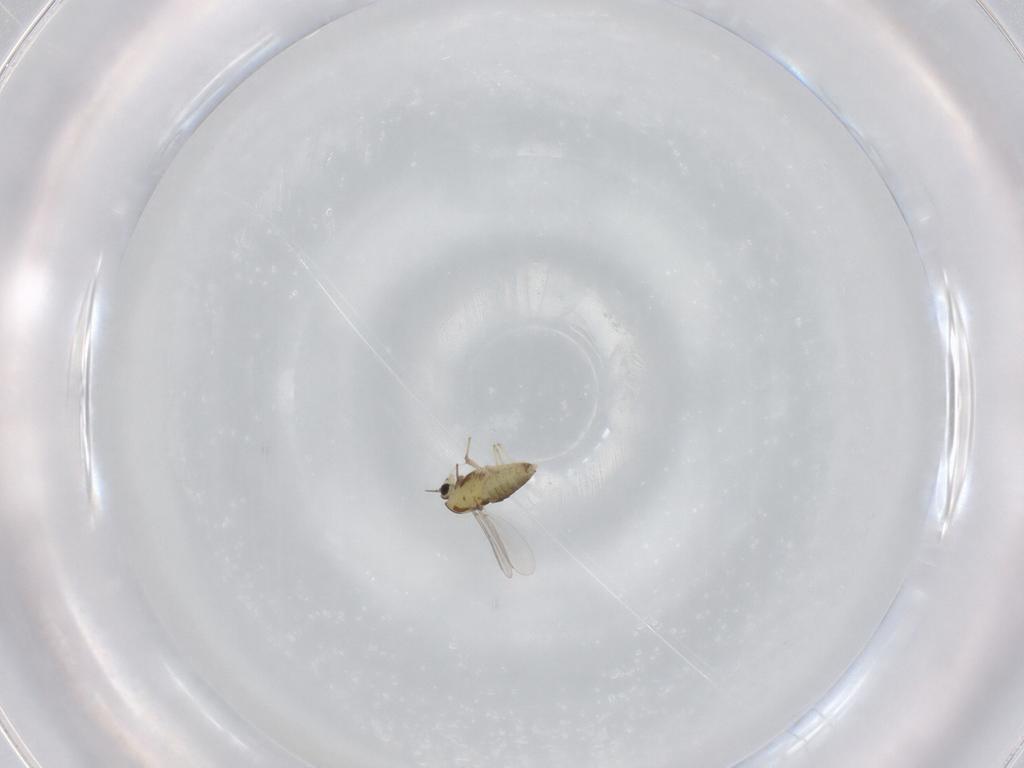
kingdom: Animalia
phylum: Arthropoda
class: Insecta
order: Diptera
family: Chironomidae
